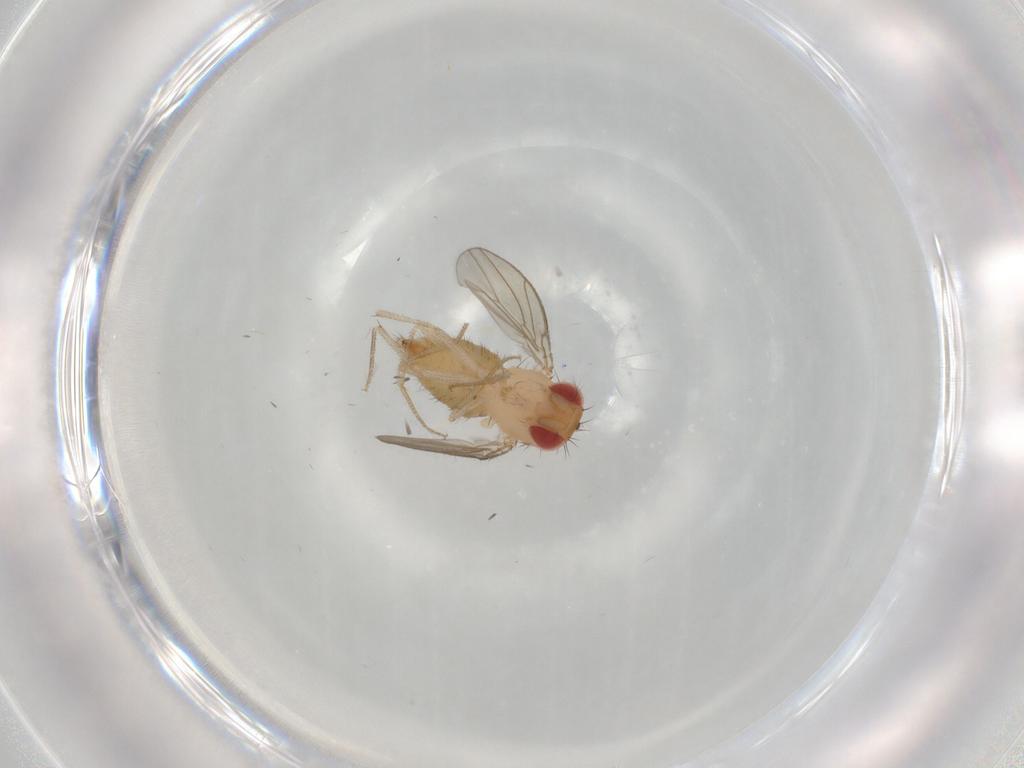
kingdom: Animalia
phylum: Arthropoda
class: Insecta
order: Diptera
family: Drosophilidae
